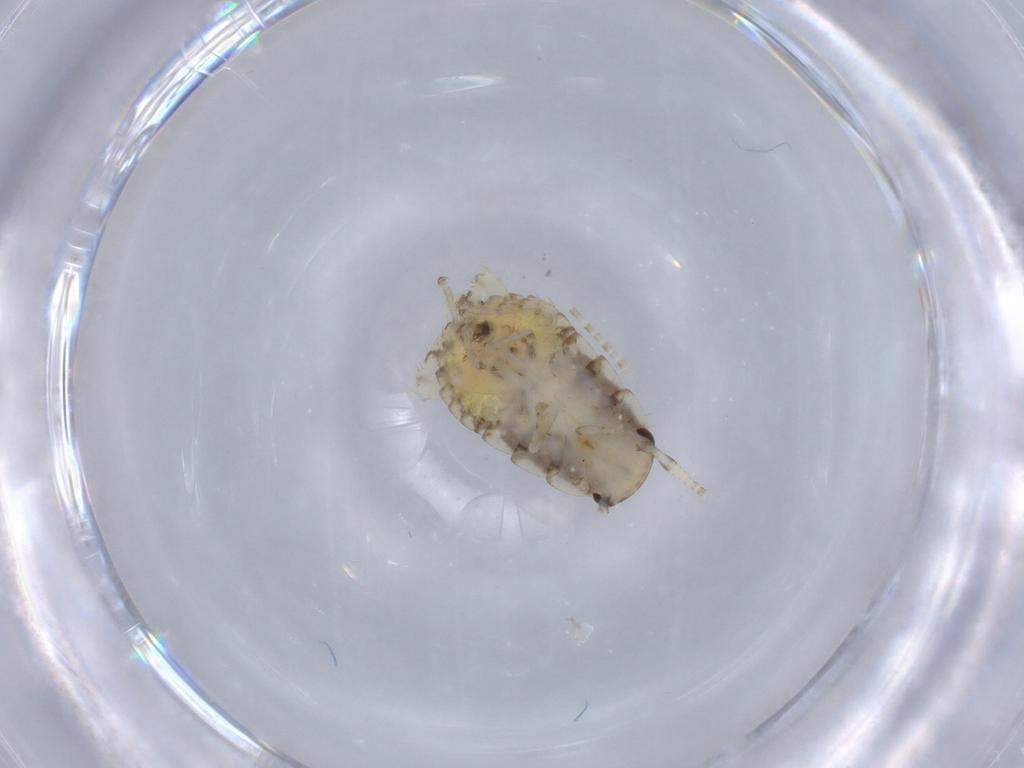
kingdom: Animalia
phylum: Arthropoda
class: Insecta
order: Blattodea
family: Ectobiidae
